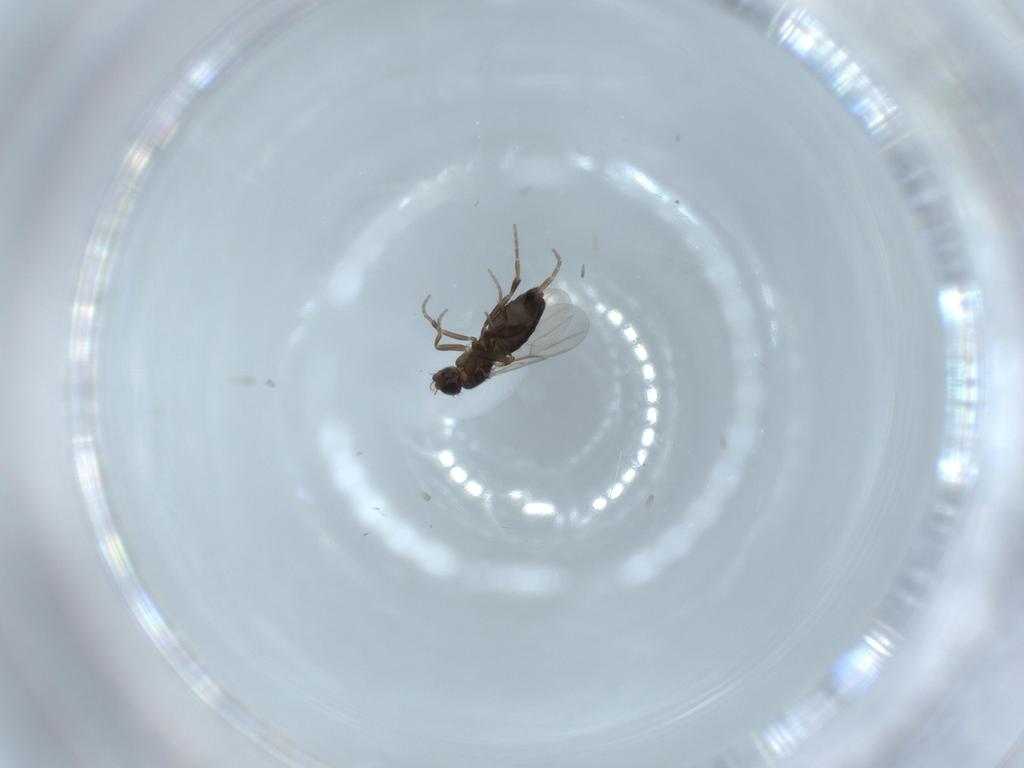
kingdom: Animalia
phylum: Arthropoda
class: Insecta
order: Diptera
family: Phoridae
